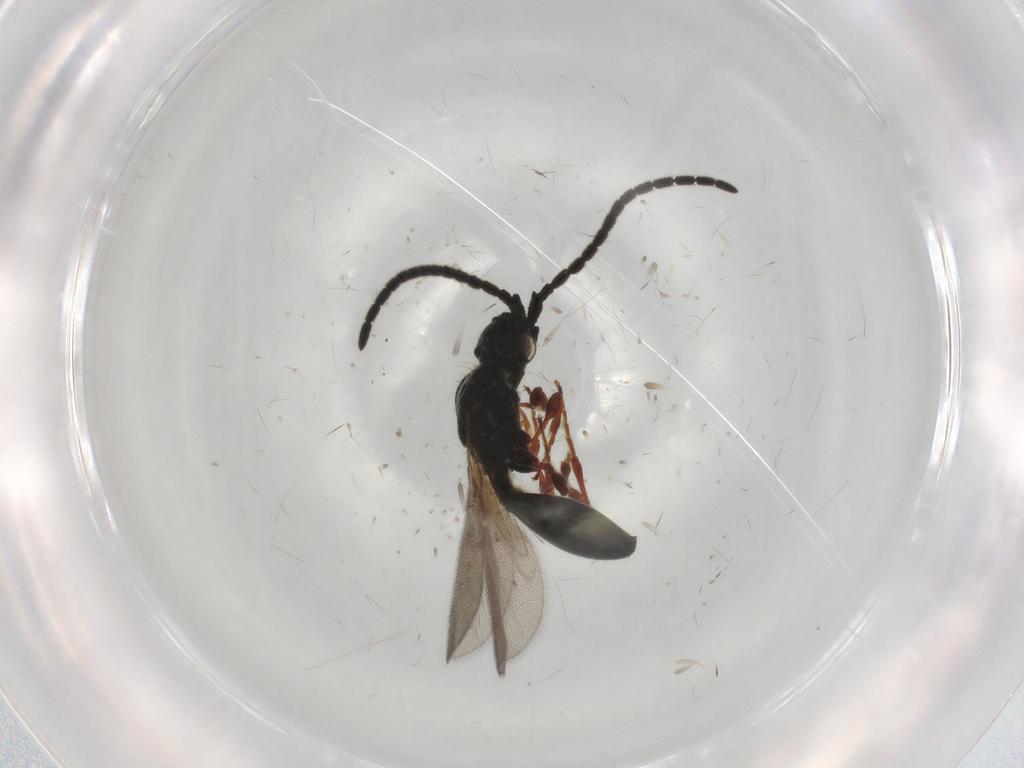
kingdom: Animalia
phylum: Arthropoda
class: Insecta
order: Hymenoptera
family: Diapriidae
